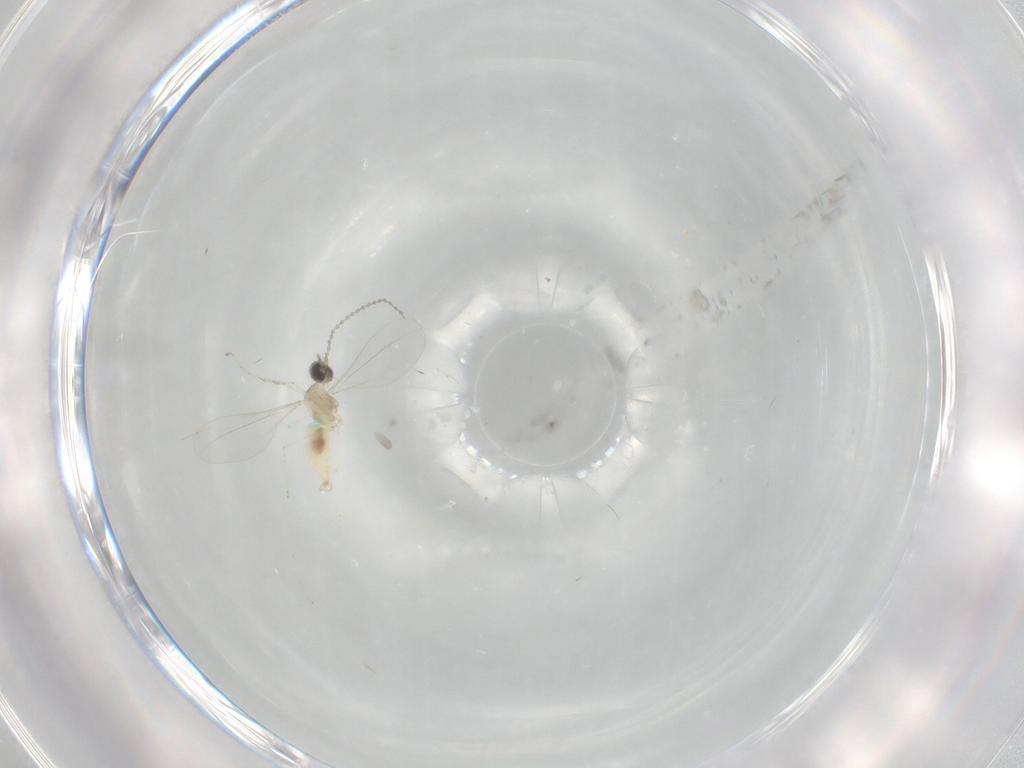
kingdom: Animalia
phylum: Arthropoda
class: Insecta
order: Diptera
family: Cecidomyiidae
